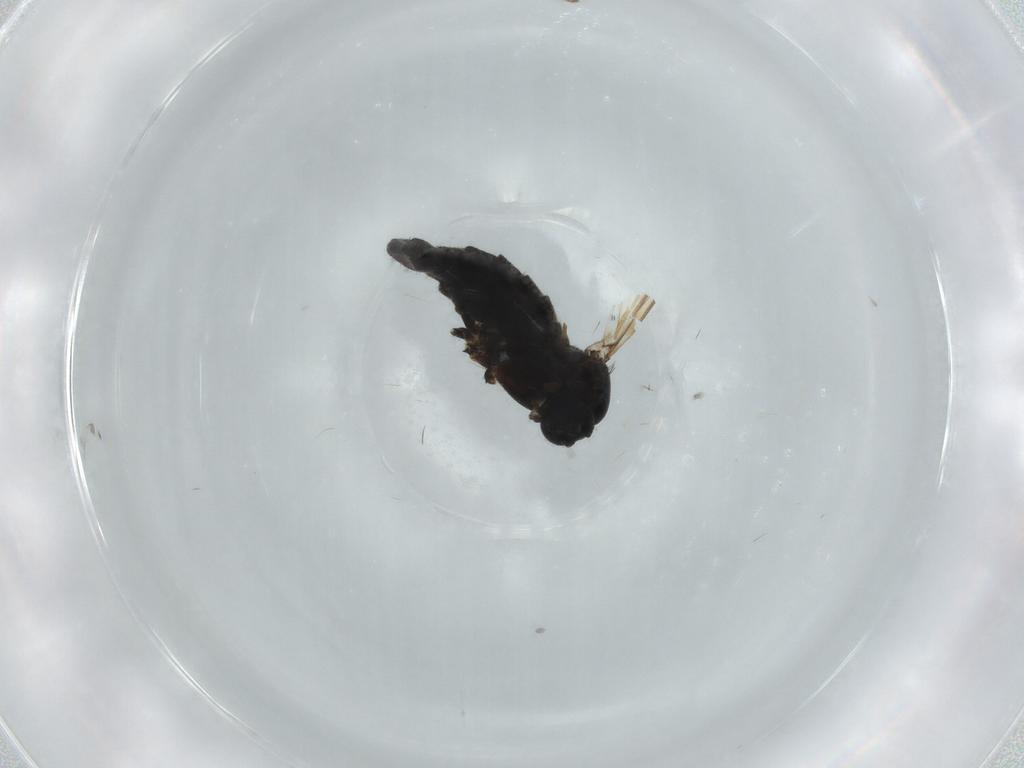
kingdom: Animalia
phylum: Arthropoda
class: Insecta
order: Diptera
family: Sciaridae
